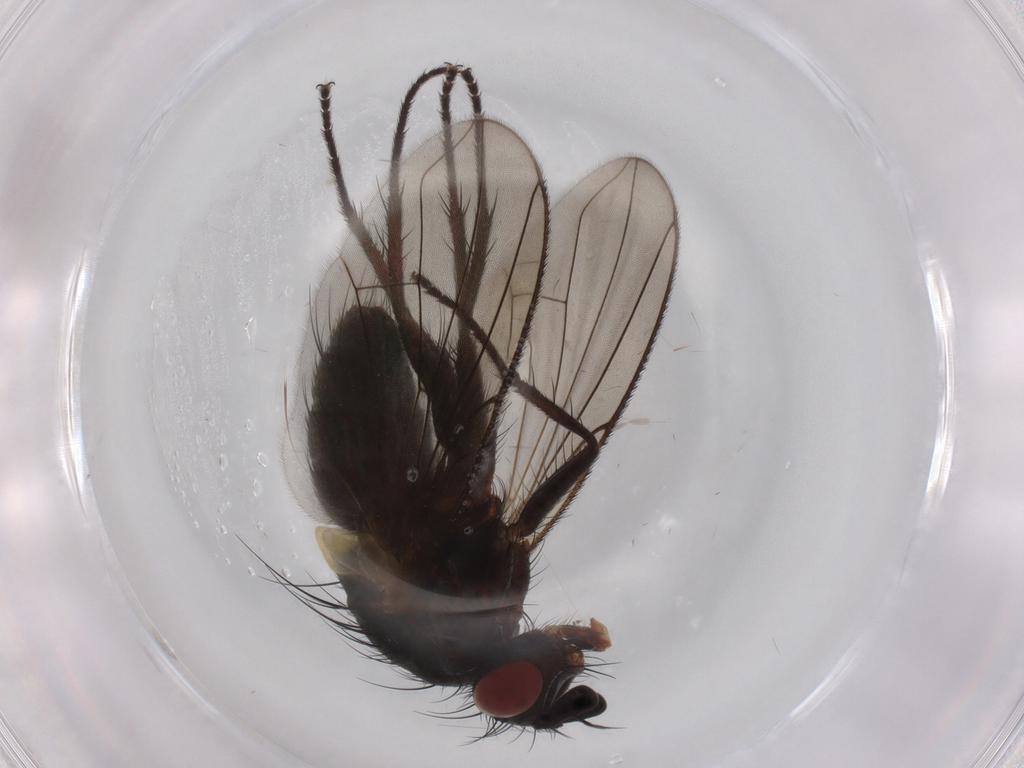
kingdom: Animalia
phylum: Arthropoda
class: Insecta
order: Diptera
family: Tachinidae
